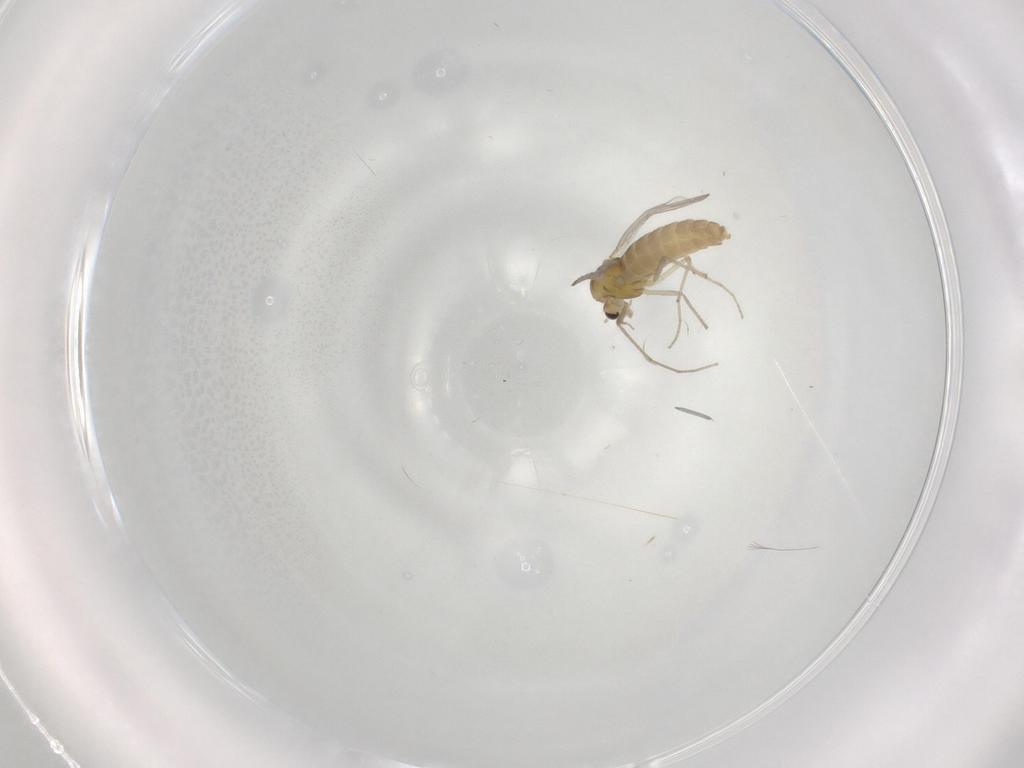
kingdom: Animalia
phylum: Arthropoda
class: Insecta
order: Diptera
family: Chironomidae
